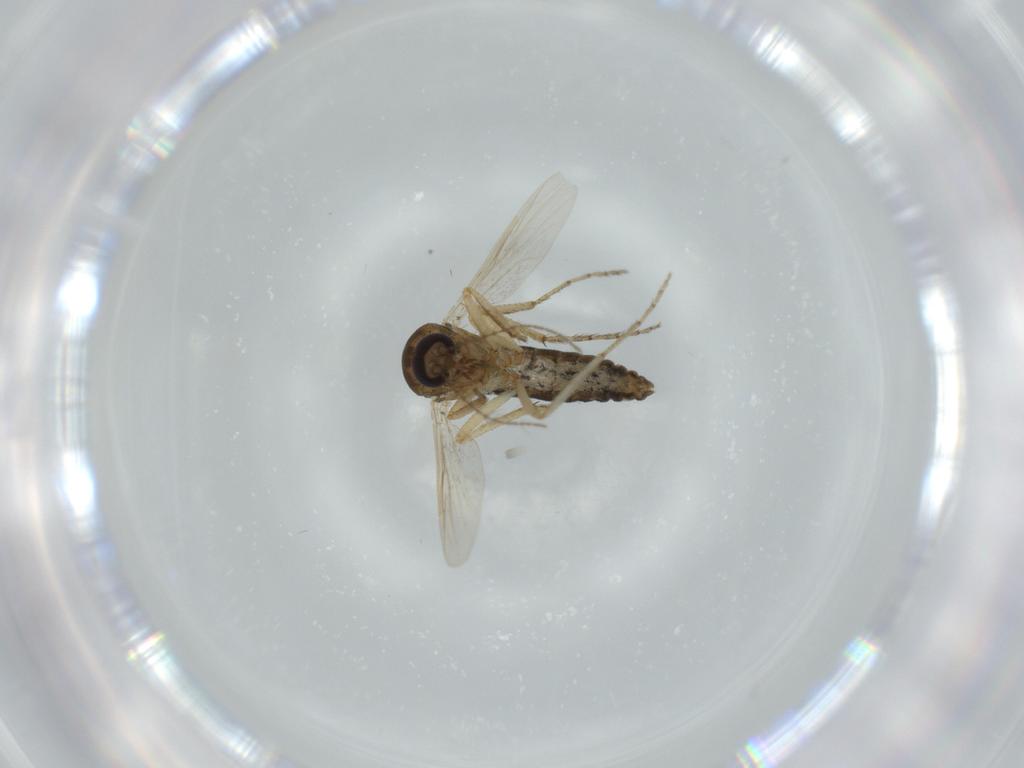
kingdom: Animalia
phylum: Arthropoda
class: Insecta
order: Diptera
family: Ceratopogonidae
